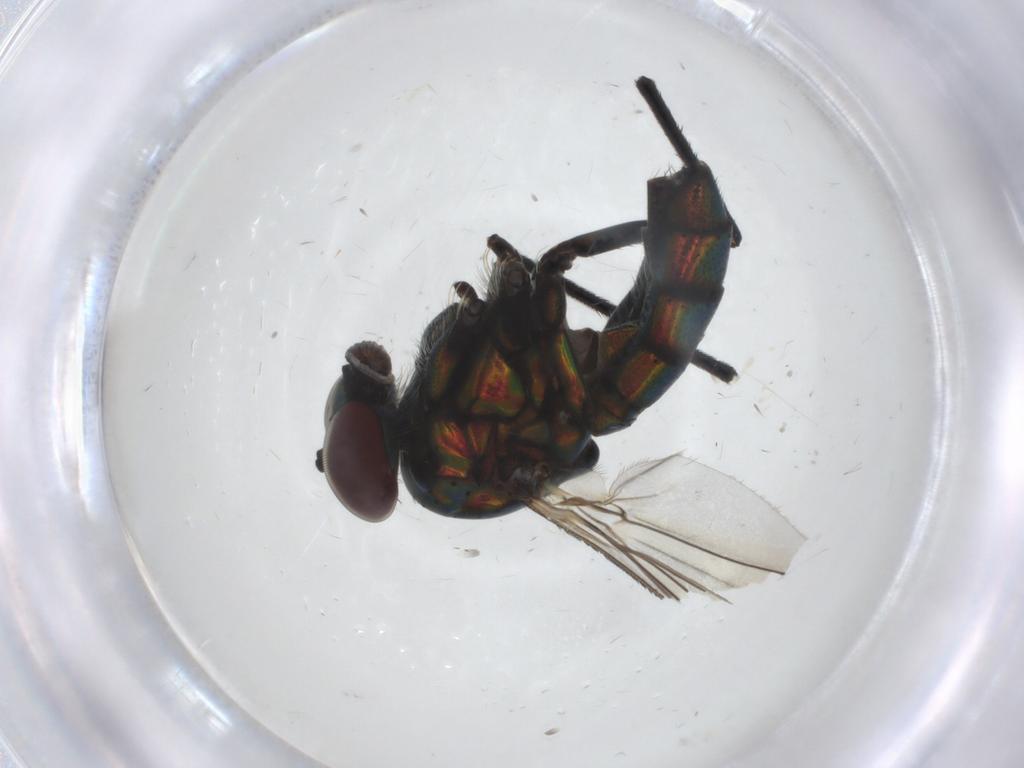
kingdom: Animalia
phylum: Arthropoda
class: Insecta
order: Diptera
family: Dolichopodidae
